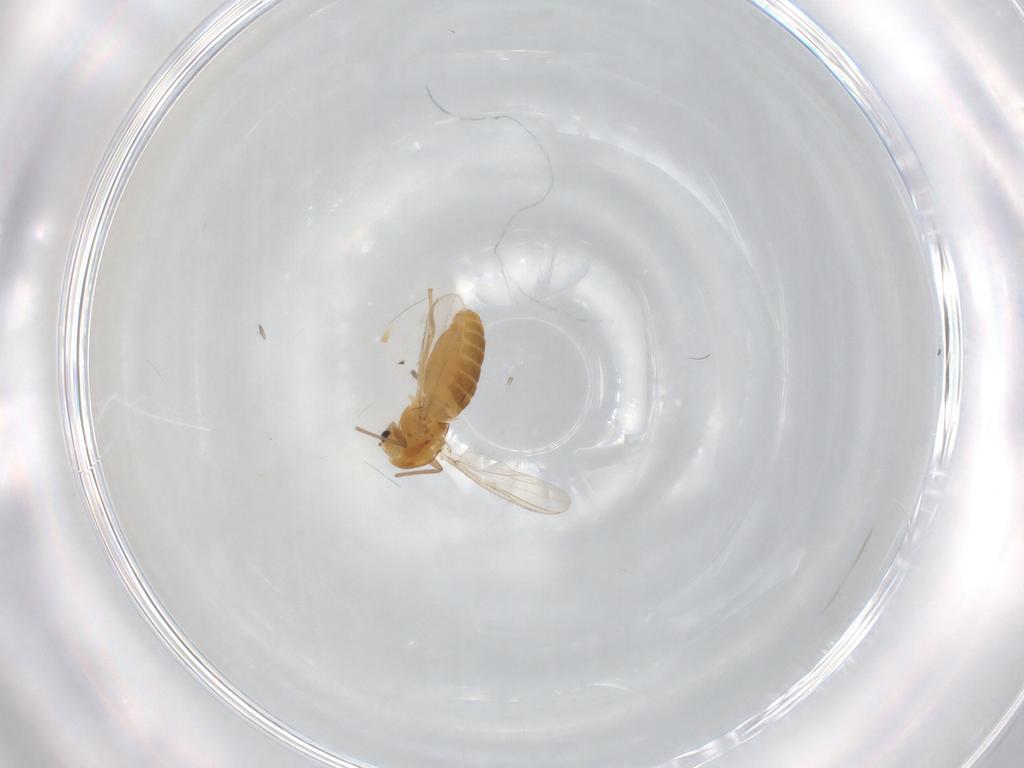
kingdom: Animalia
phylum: Arthropoda
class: Insecta
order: Diptera
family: Chironomidae
